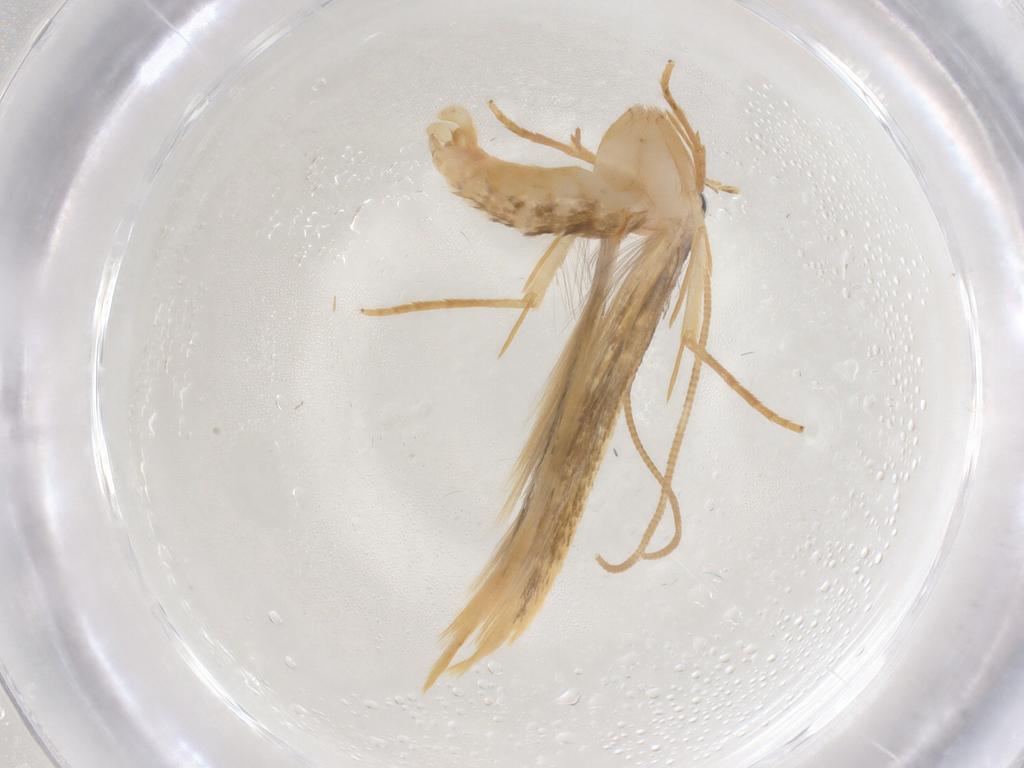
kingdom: Animalia
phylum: Arthropoda
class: Insecta
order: Lepidoptera
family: Tineidae
